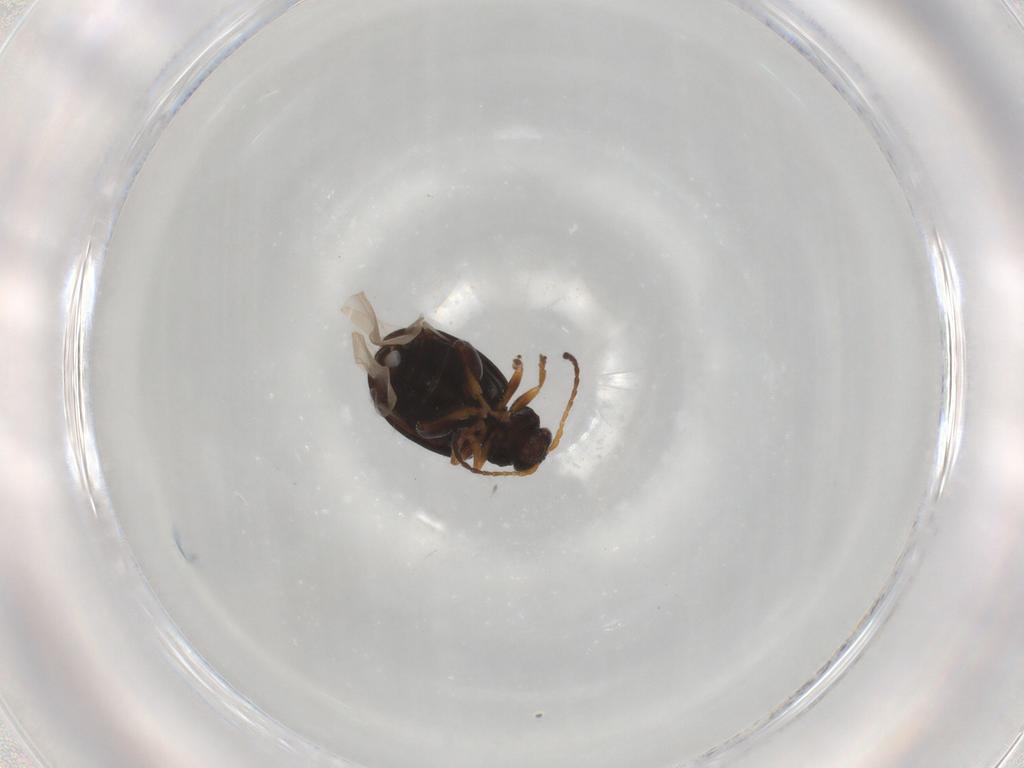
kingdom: Animalia
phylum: Arthropoda
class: Insecta
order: Coleoptera
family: Chrysomelidae
